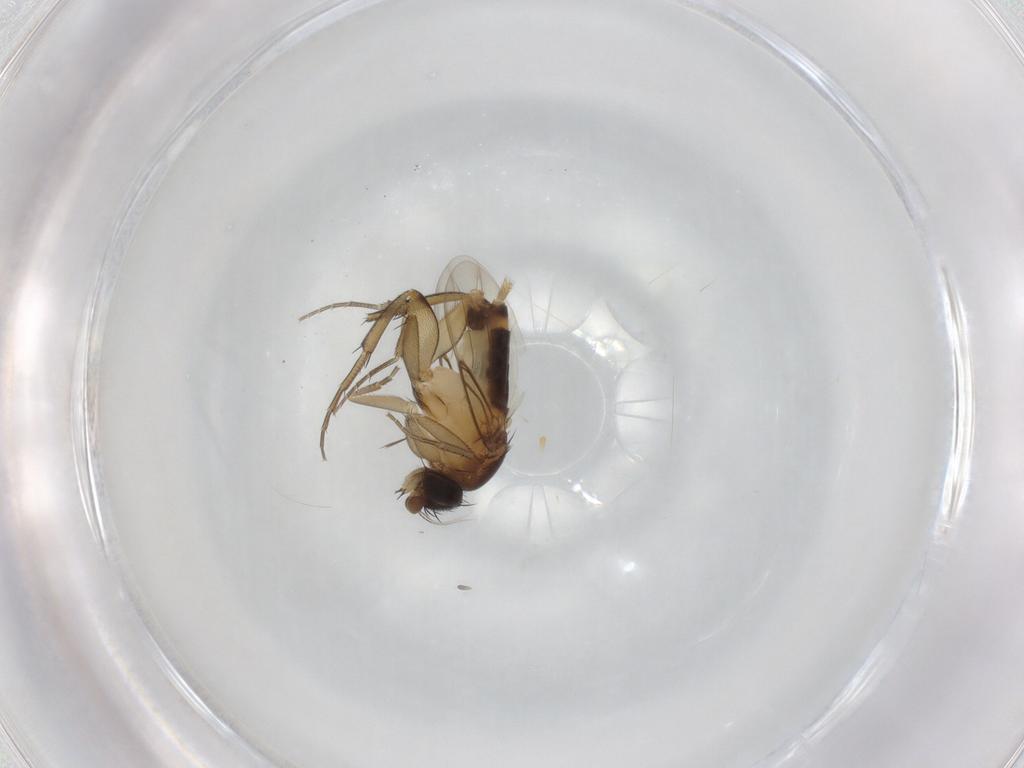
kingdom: Animalia
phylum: Arthropoda
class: Insecta
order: Diptera
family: Phoridae
